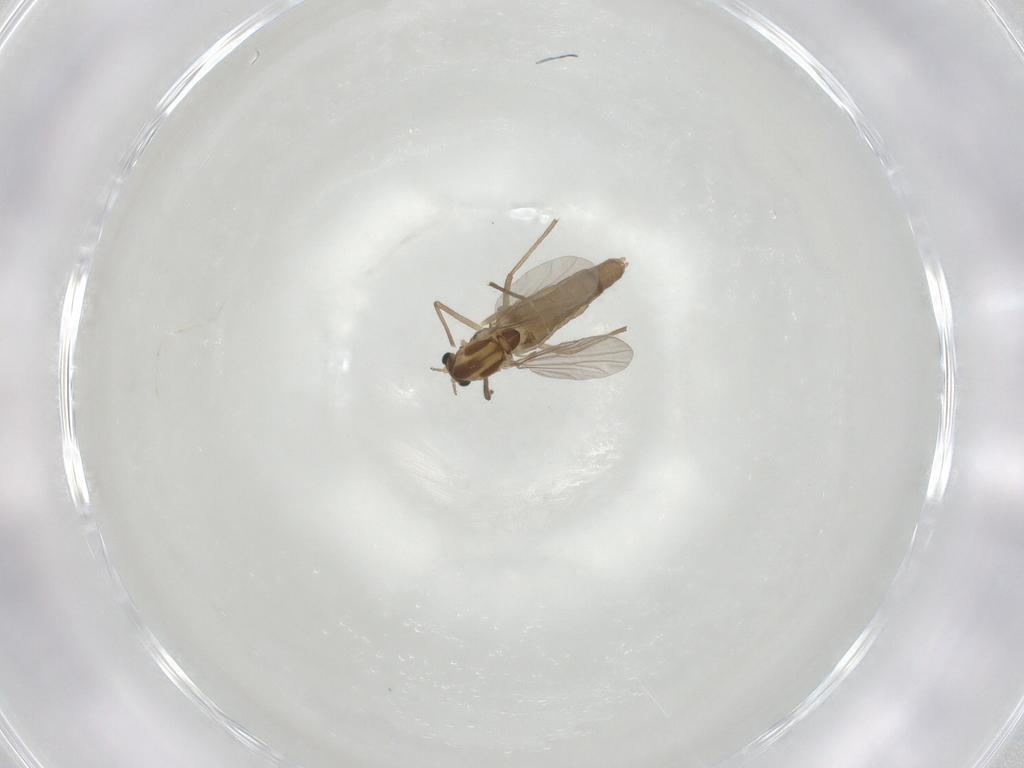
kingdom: Animalia
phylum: Arthropoda
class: Insecta
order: Diptera
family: Chironomidae
